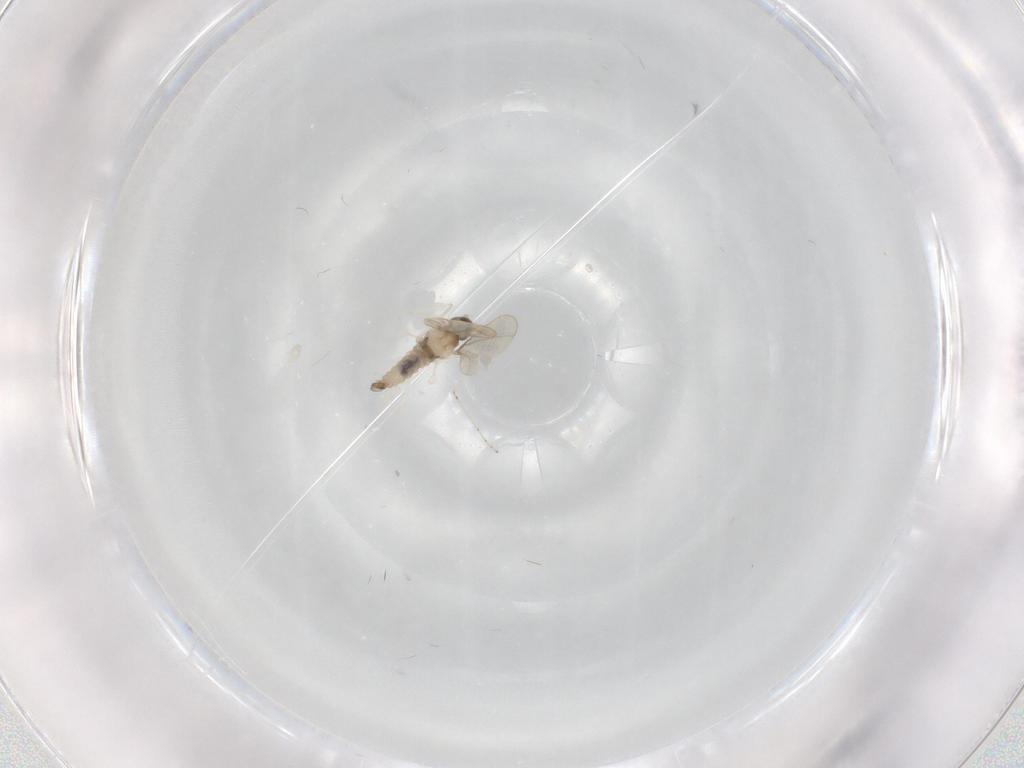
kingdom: Animalia
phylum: Arthropoda
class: Insecta
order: Diptera
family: Cecidomyiidae
